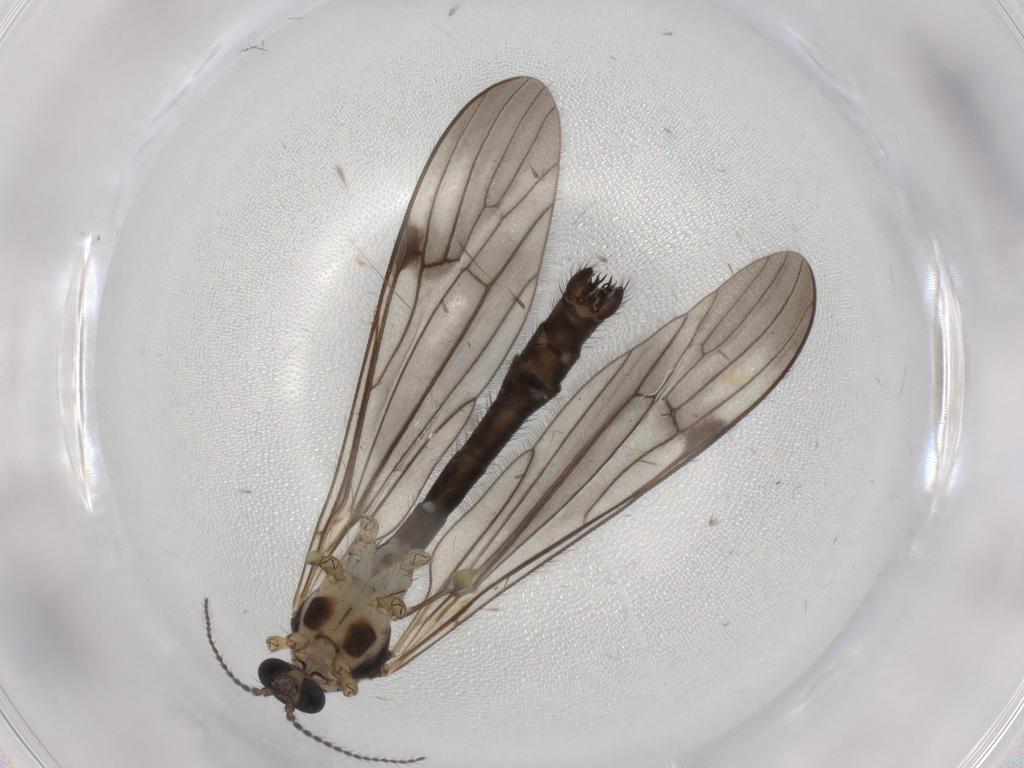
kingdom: Animalia
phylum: Arthropoda
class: Insecta
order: Diptera
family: Limoniidae
